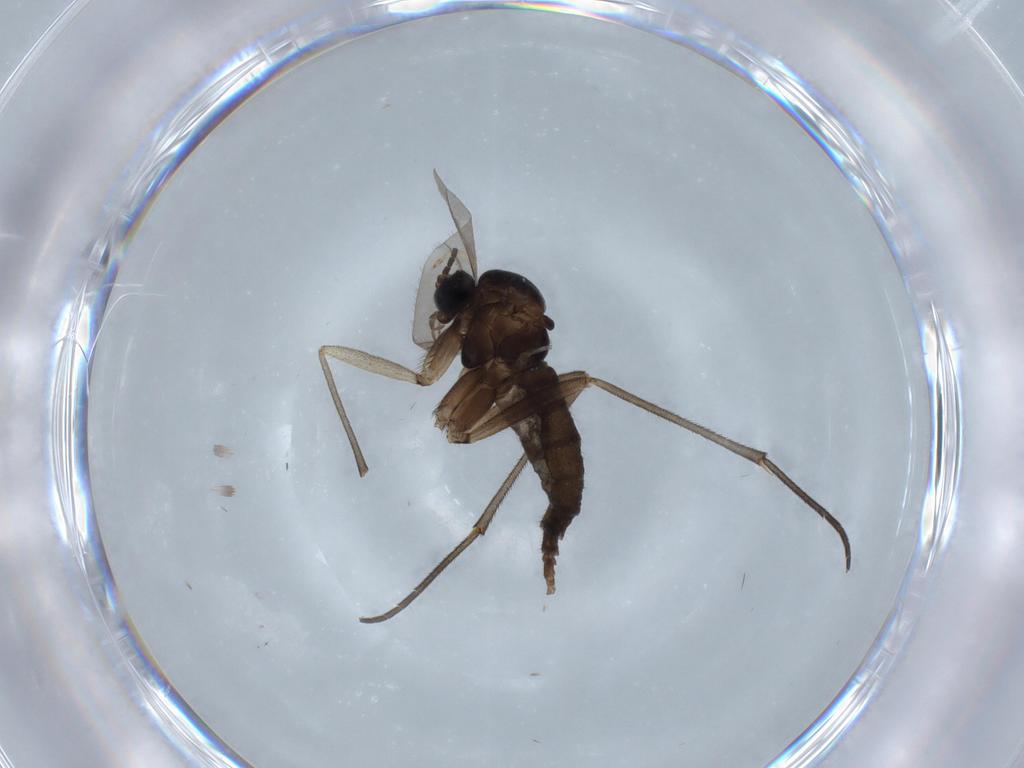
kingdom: Animalia
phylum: Arthropoda
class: Insecta
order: Diptera
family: Sciaridae
